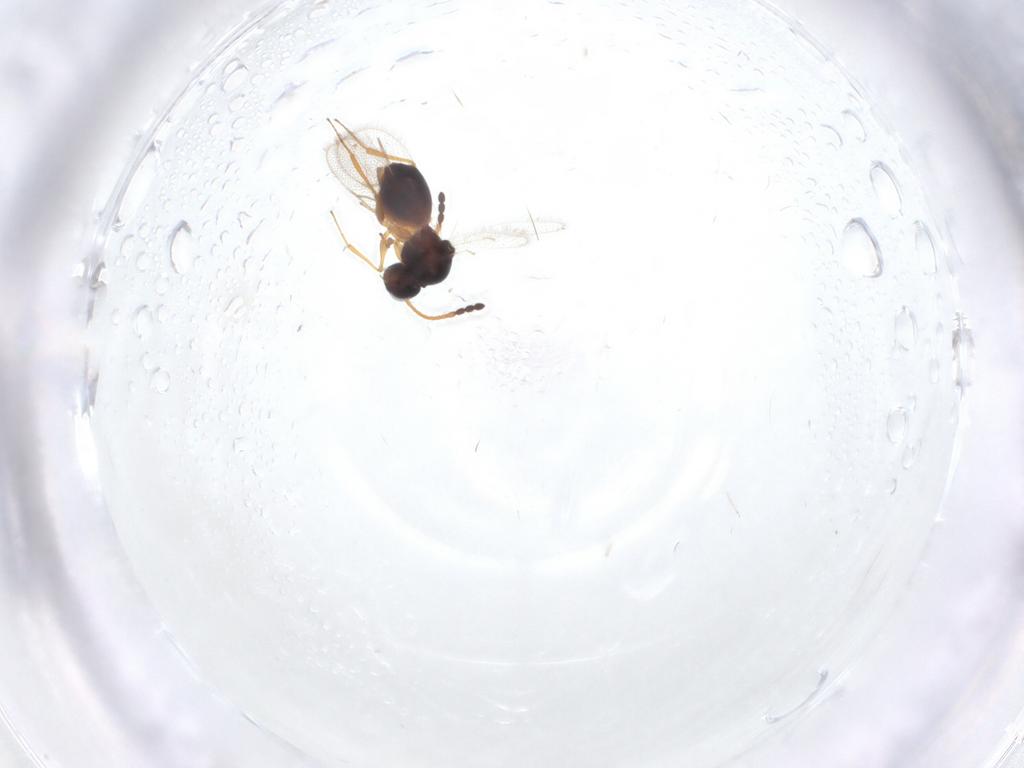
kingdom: Animalia
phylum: Arthropoda
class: Insecta
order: Hymenoptera
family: Figitidae
